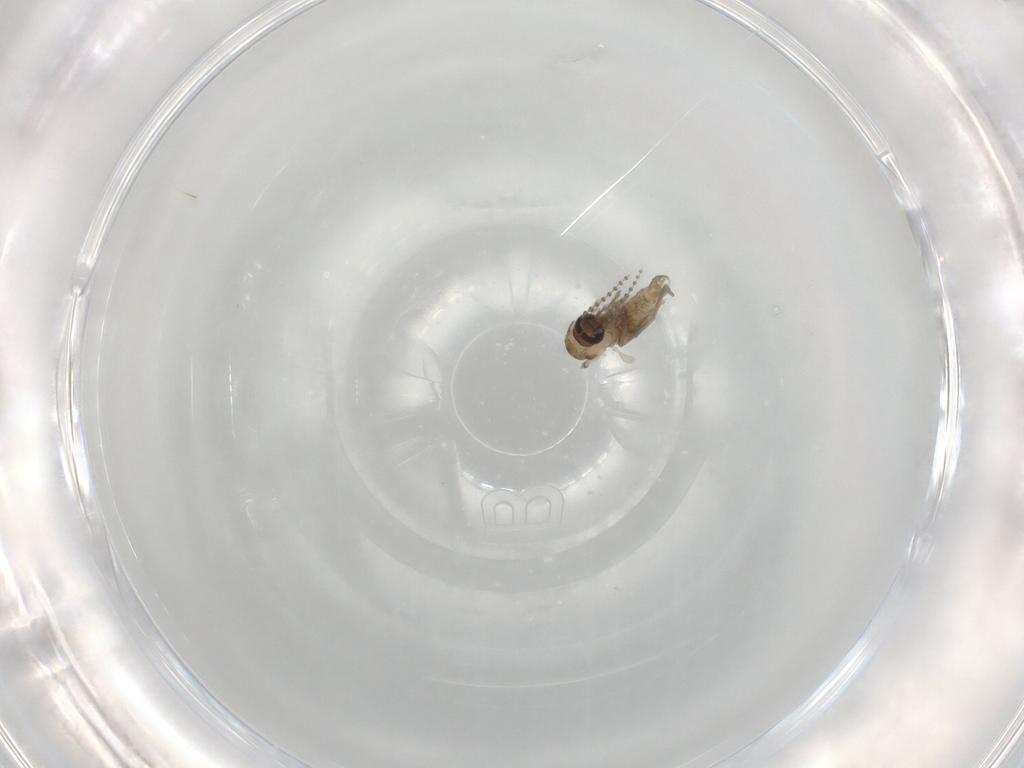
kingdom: Animalia
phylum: Arthropoda
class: Insecta
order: Diptera
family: Psychodidae
